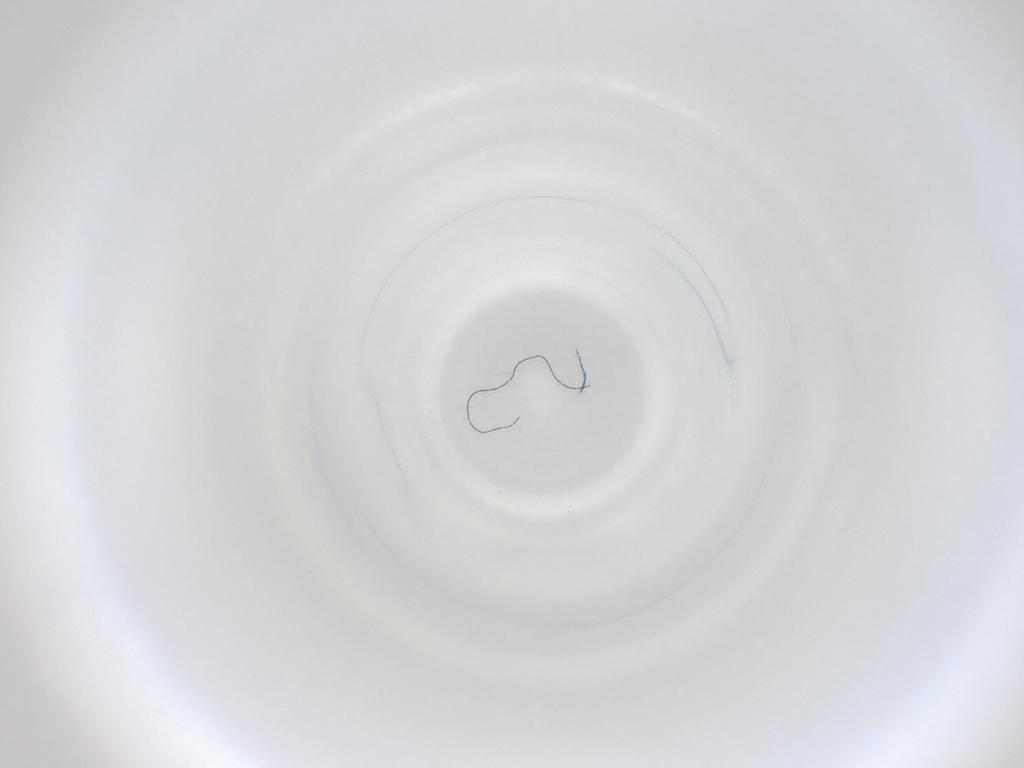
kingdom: Animalia
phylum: Arthropoda
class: Insecta
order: Diptera
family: Cecidomyiidae
